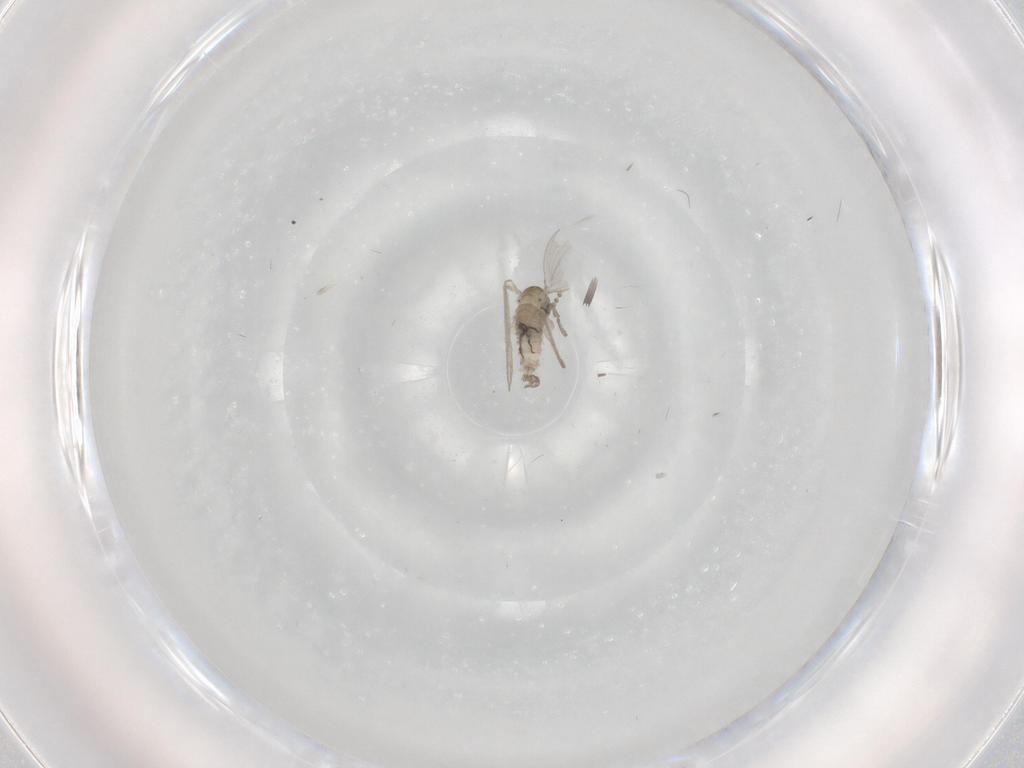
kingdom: Animalia
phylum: Arthropoda
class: Insecta
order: Diptera
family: Psychodidae
